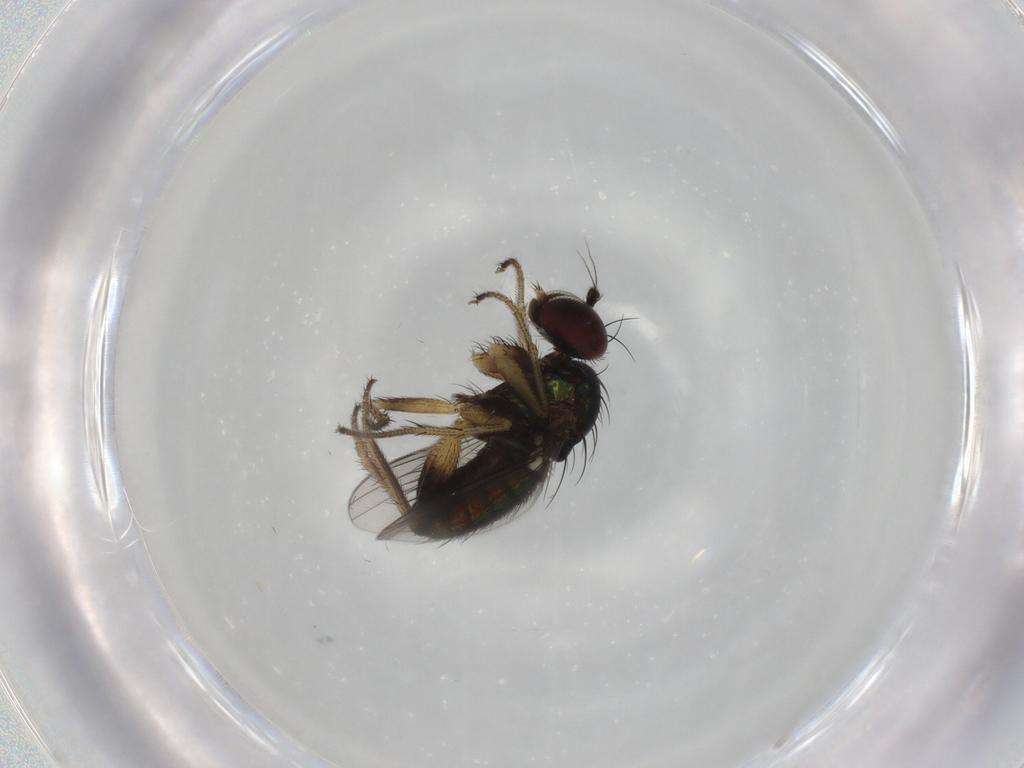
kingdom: Animalia
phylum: Arthropoda
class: Insecta
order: Diptera
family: Dolichopodidae
